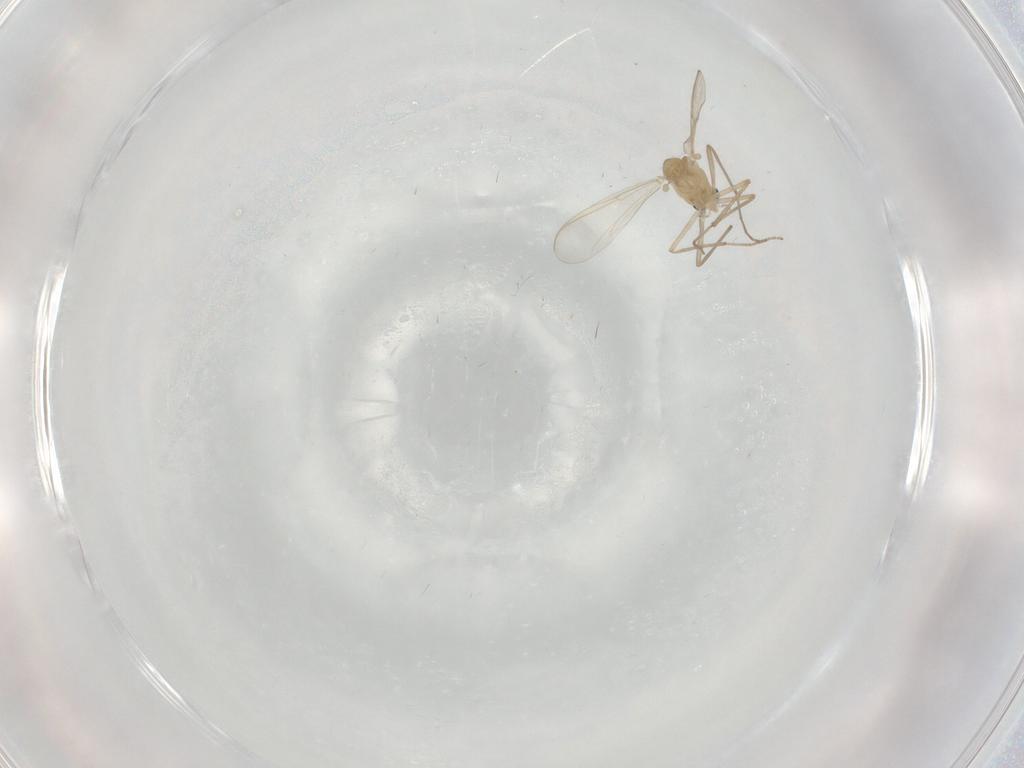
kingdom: Animalia
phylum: Arthropoda
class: Insecta
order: Diptera
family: Chironomidae
